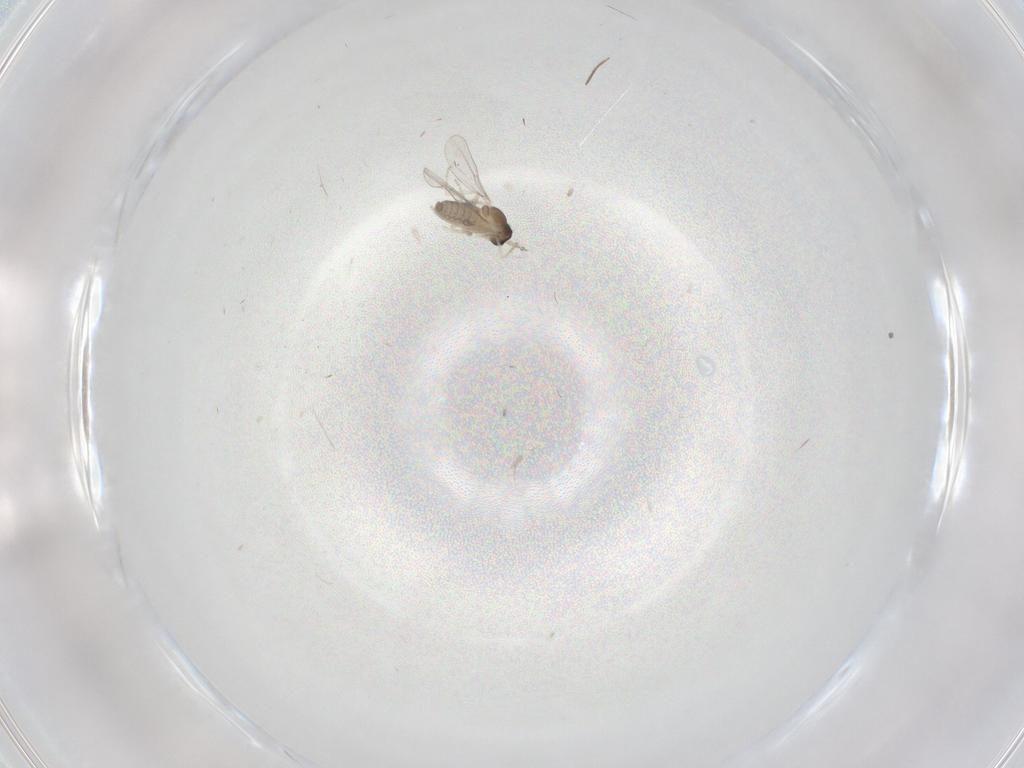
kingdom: Animalia
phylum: Arthropoda
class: Insecta
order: Diptera
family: Cecidomyiidae
